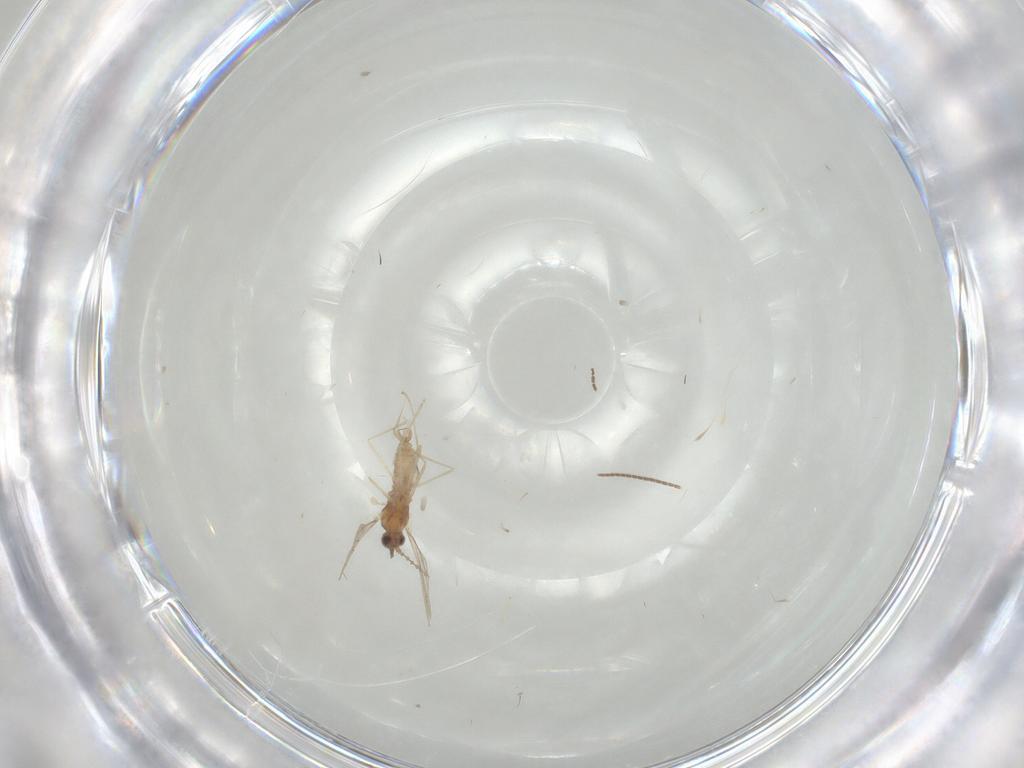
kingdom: Animalia
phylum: Arthropoda
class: Insecta
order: Diptera
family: Cecidomyiidae
